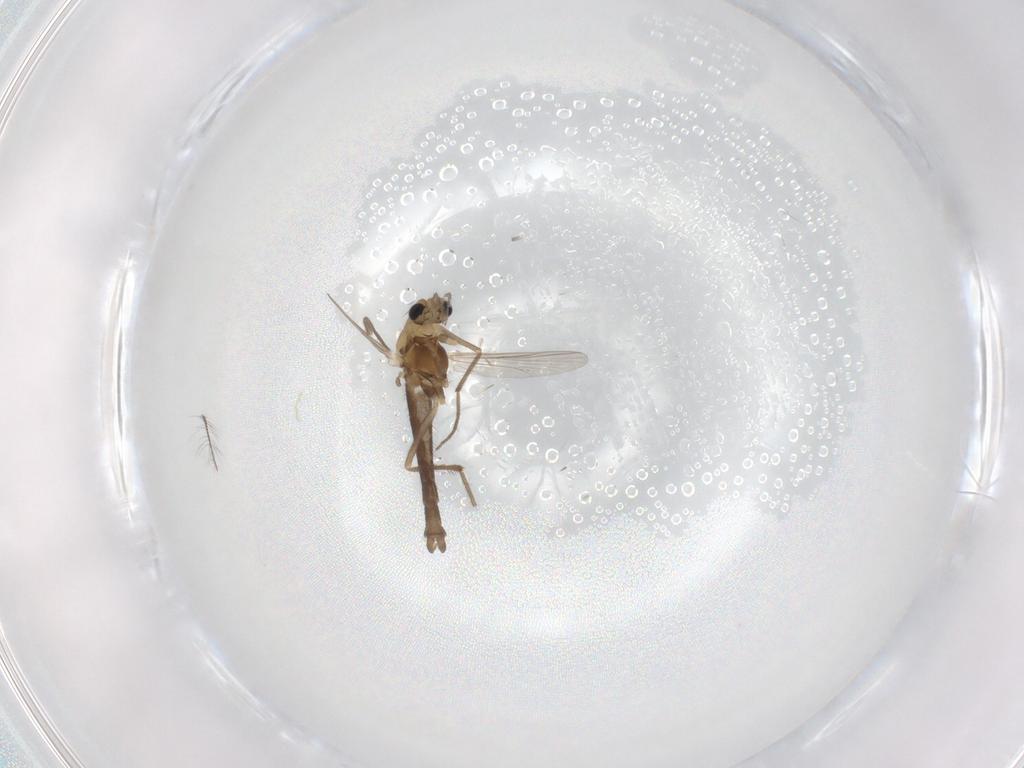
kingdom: Animalia
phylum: Arthropoda
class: Insecta
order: Diptera
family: Chironomidae
